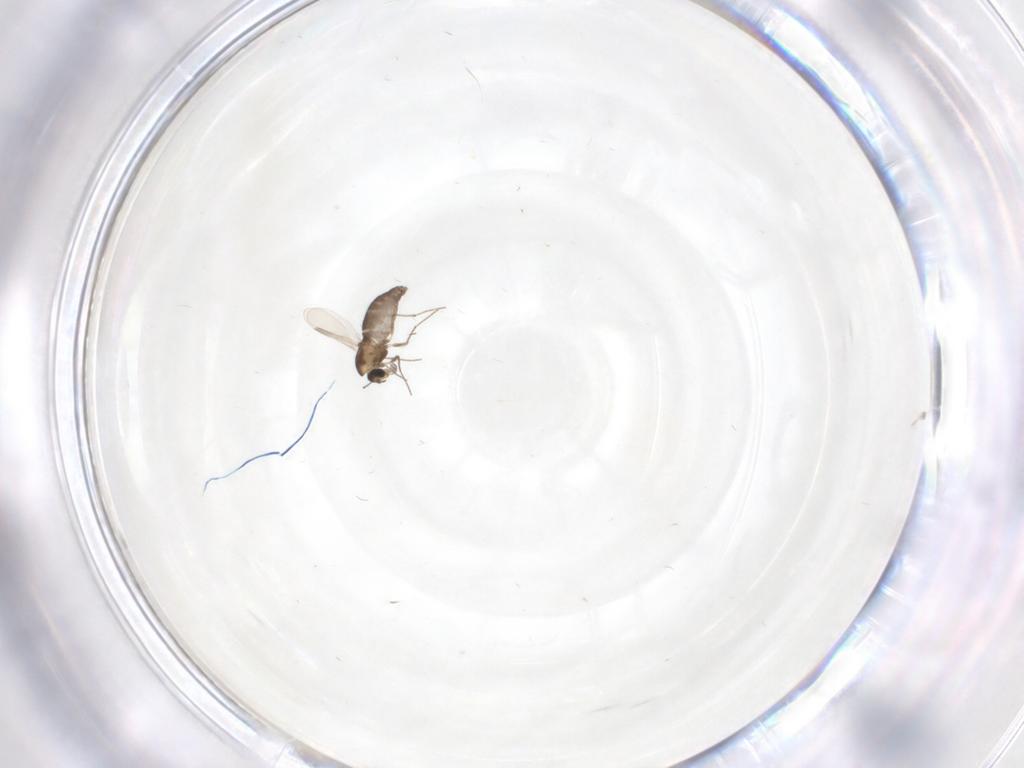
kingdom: Animalia
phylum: Arthropoda
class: Insecta
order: Diptera
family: Chironomidae
